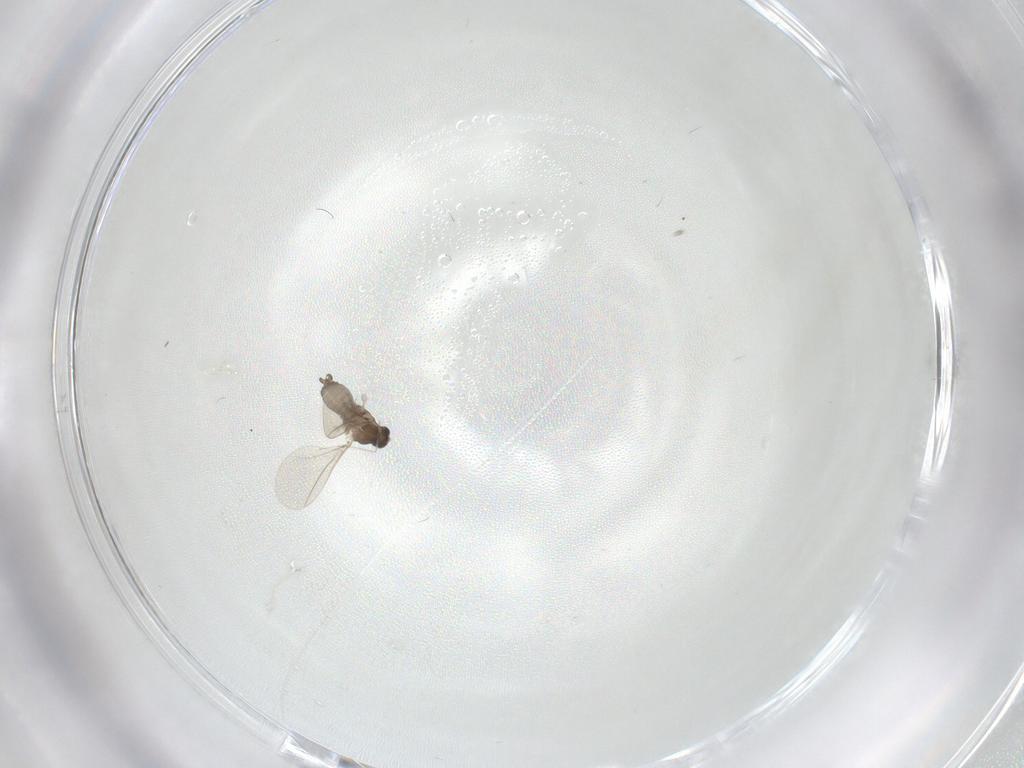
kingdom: Animalia
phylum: Arthropoda
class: Insecta
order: Diptera
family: Cecidomyiidae
